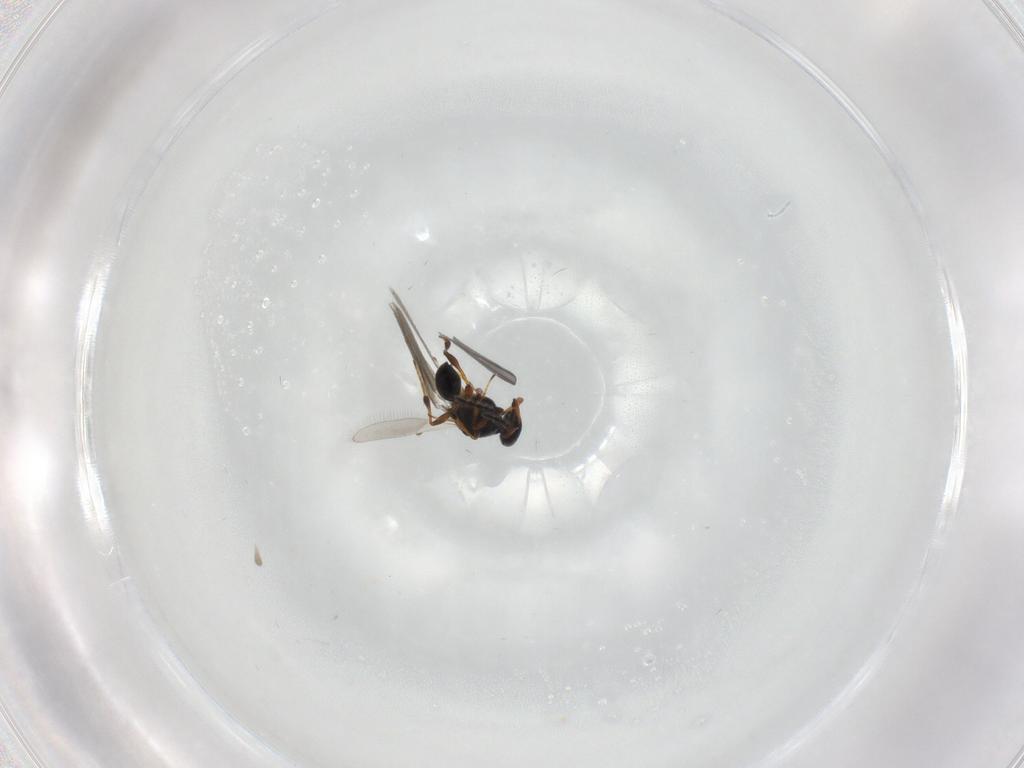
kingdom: Animalia
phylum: Arthropoda
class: Insecta
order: Hymenoptera
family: Platygastridae
